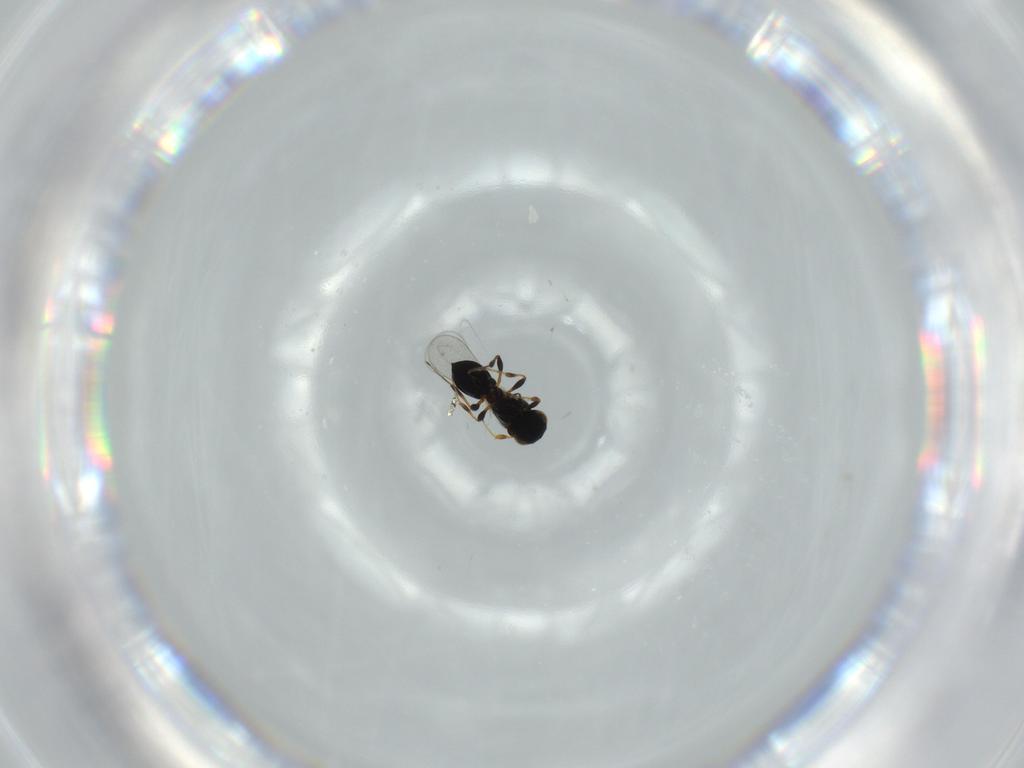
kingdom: Animalia
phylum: Arthropoda
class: Insecta
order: Hymenoptera
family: Platygastridae
